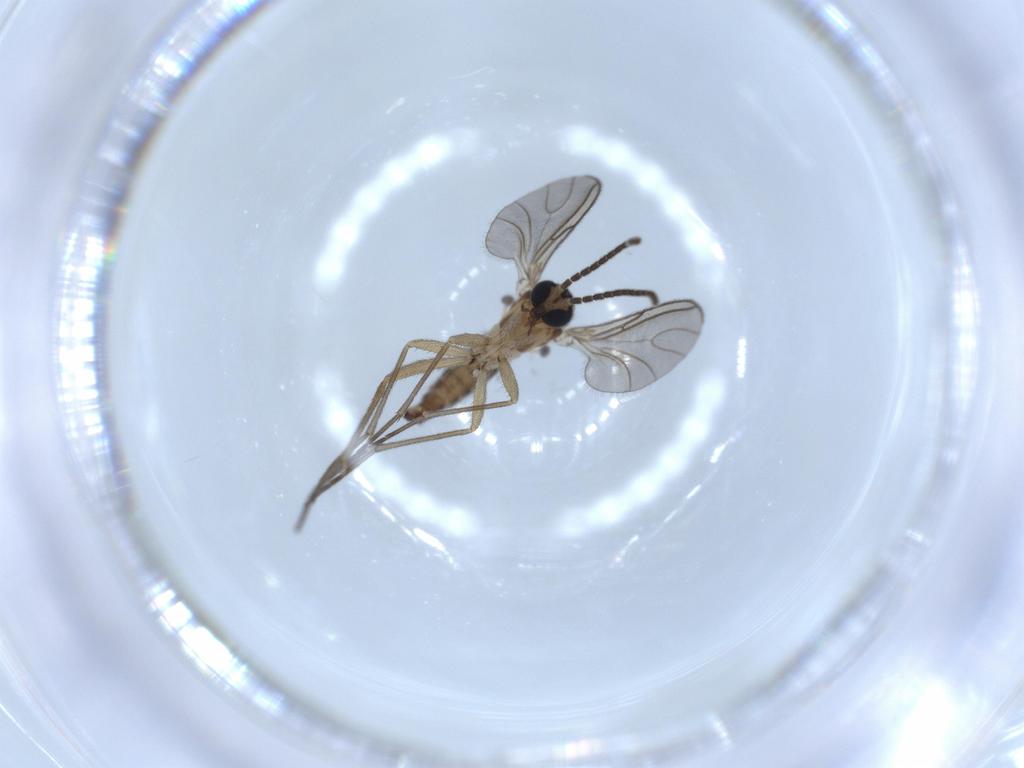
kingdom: Animalia
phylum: Arthropoda
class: Insecta
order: Diptera
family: Sciaridae
